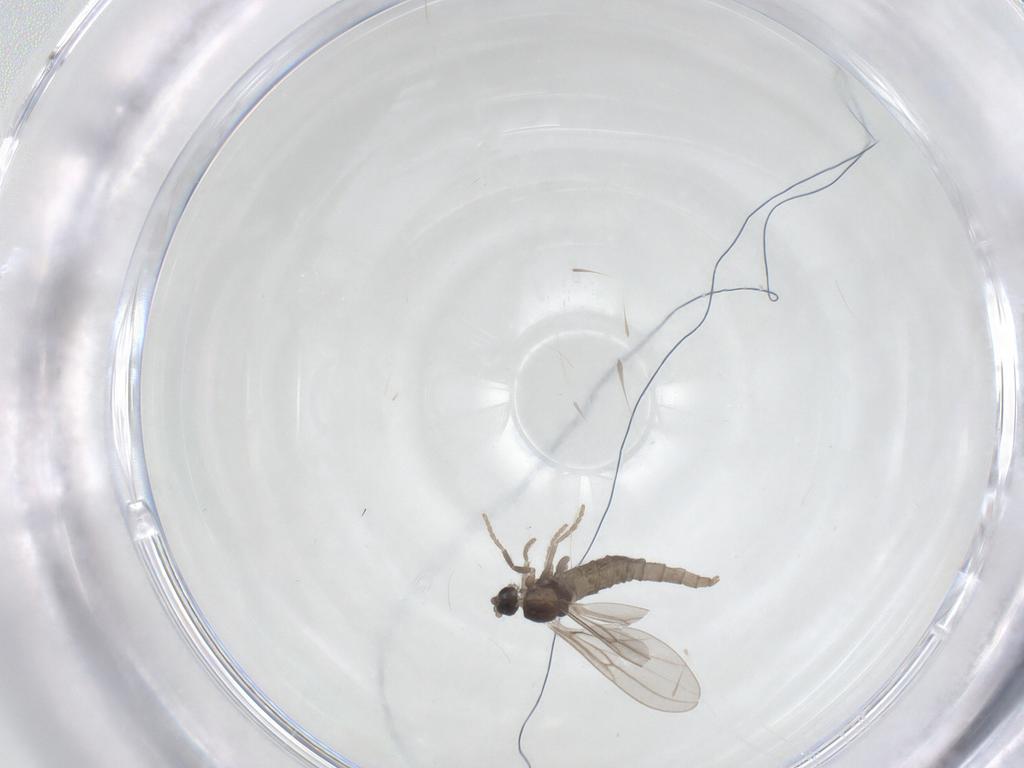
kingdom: Animalia
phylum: Arthropoda
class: Insecta
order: Diptera
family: Cecidomyiidae
